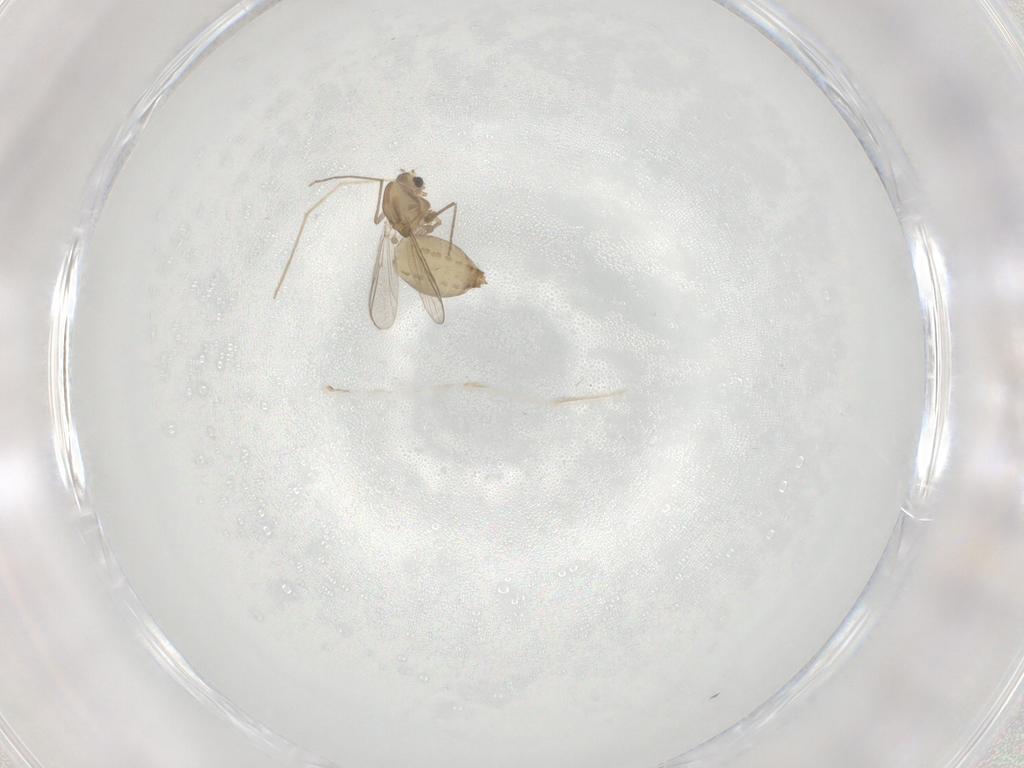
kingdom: Animalia
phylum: Arthropoda
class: Insecta
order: Diptera
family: Chironomidae
